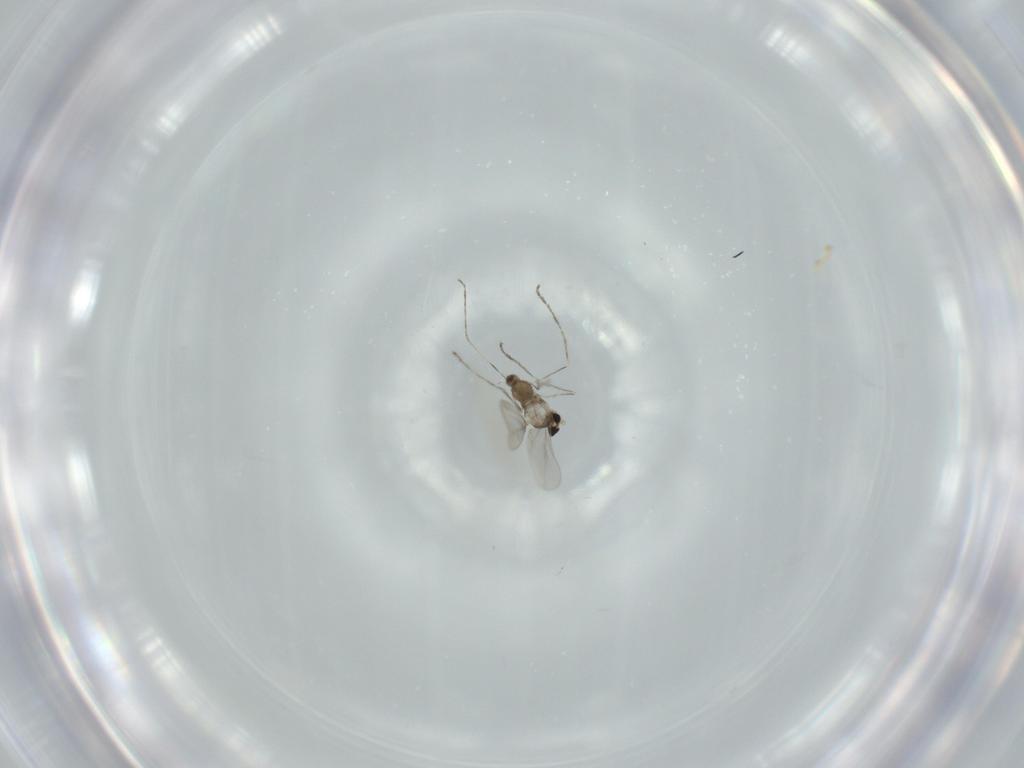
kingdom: Animalia
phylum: Arthropoda
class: Insecta
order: Diptera
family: Cecidomyiidae
